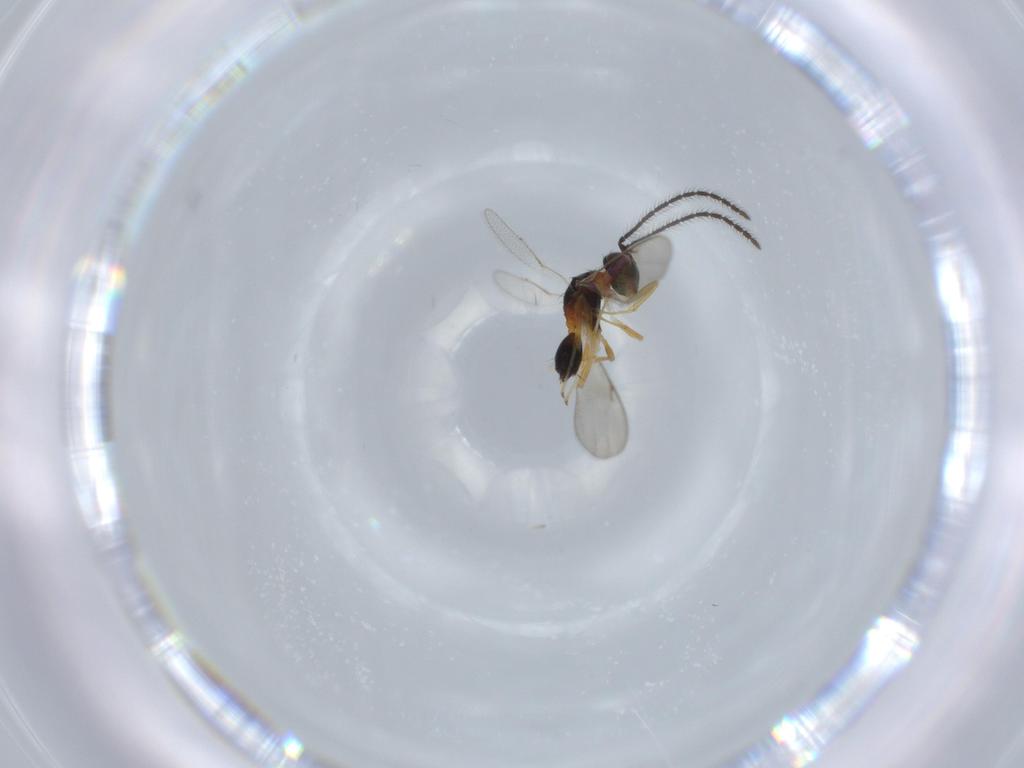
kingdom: Animalia
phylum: Arthropoda
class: Insecta
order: Hymenoptera
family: Diparidae
